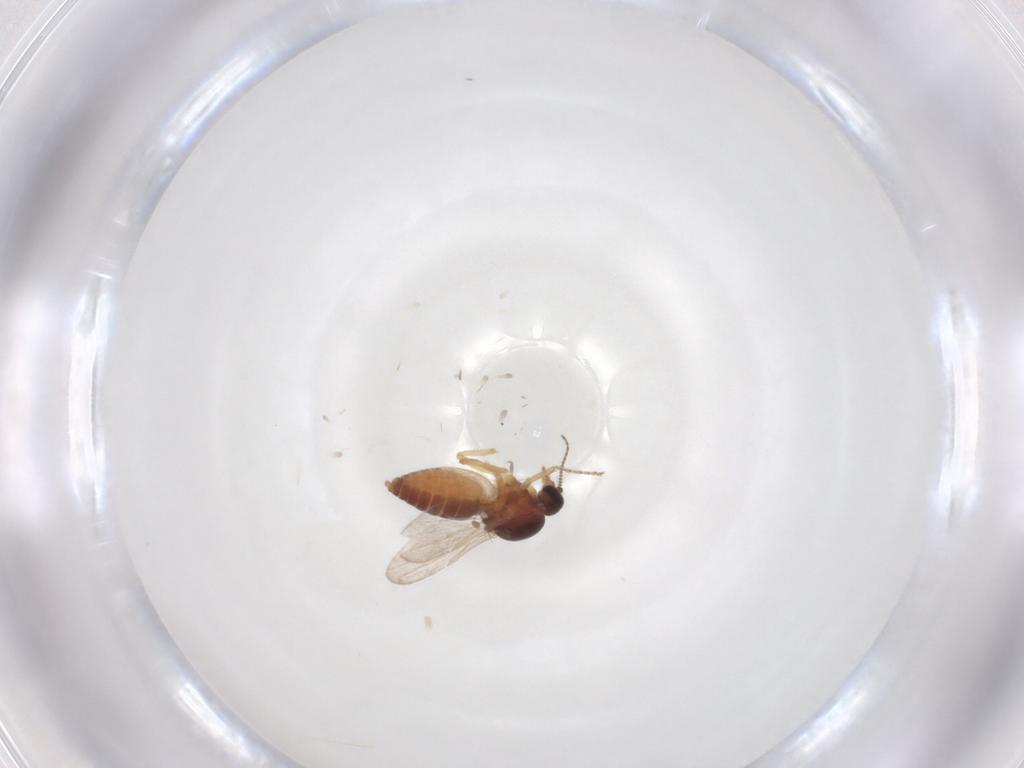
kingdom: Animalia
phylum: Arthropoda
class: Insecta
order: Diptera
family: Ceratopogonidae
